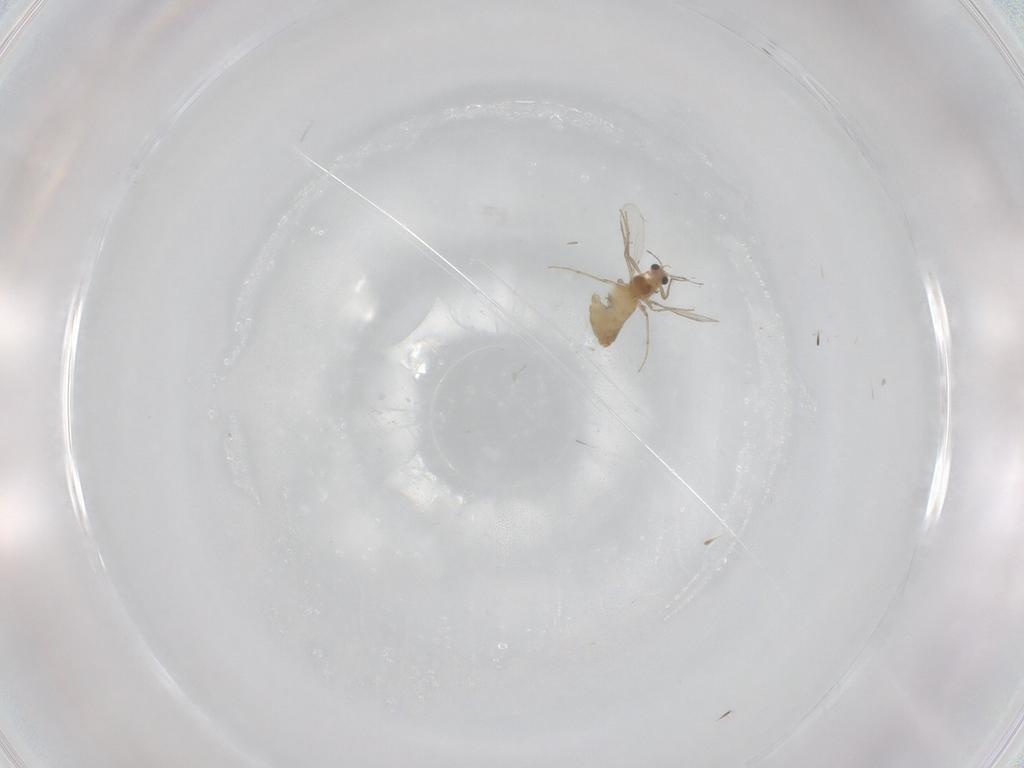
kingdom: Animalia
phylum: Arthropoda
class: Insecta
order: Diptera
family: Chironomidae
